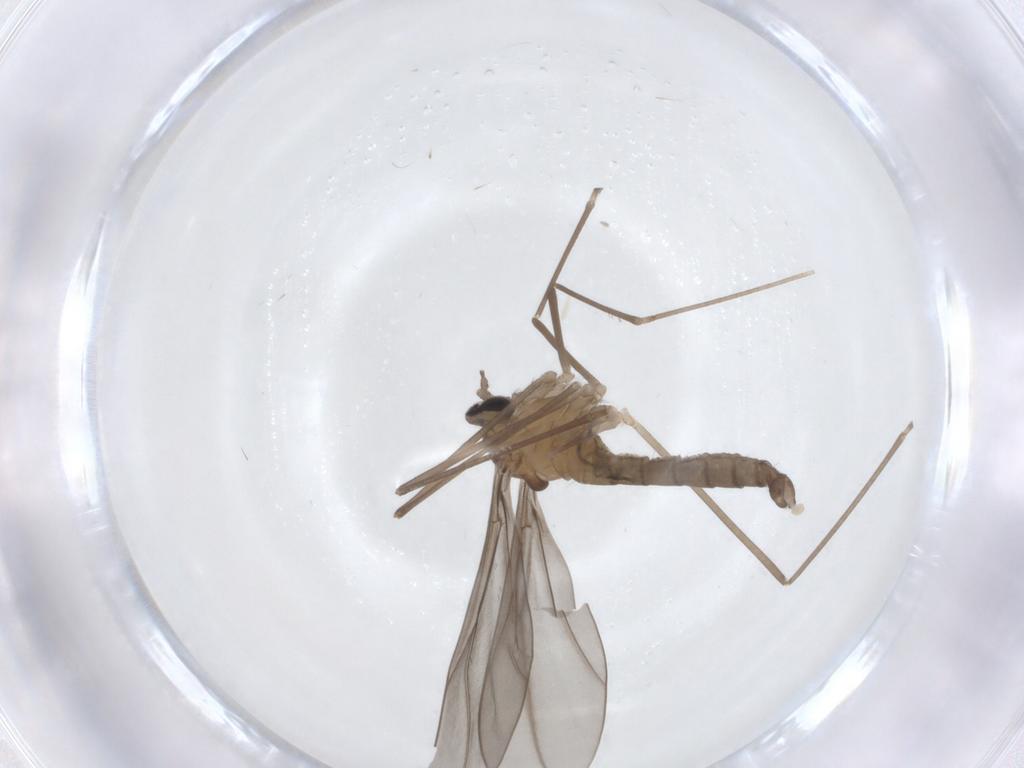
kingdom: Animalia
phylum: Arthropoda
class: Insecta
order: Diptera
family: Cecidomyiidae
